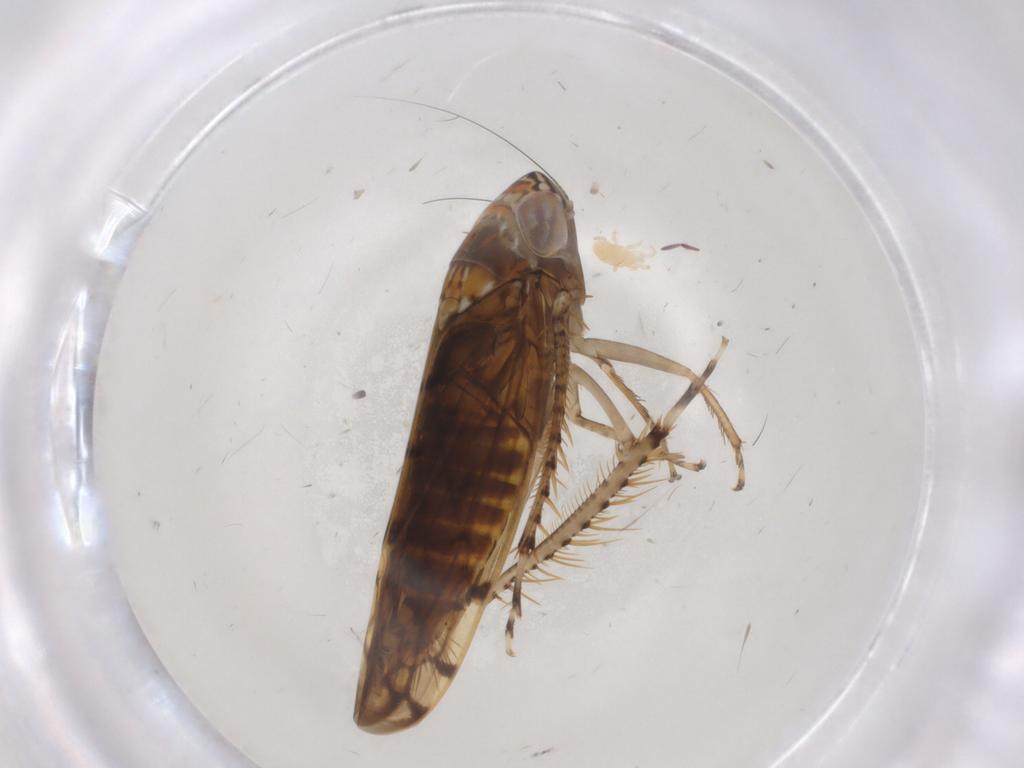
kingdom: Animalia
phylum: Arthropoda
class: Insecta
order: Hemiptera
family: Cicadellidae
